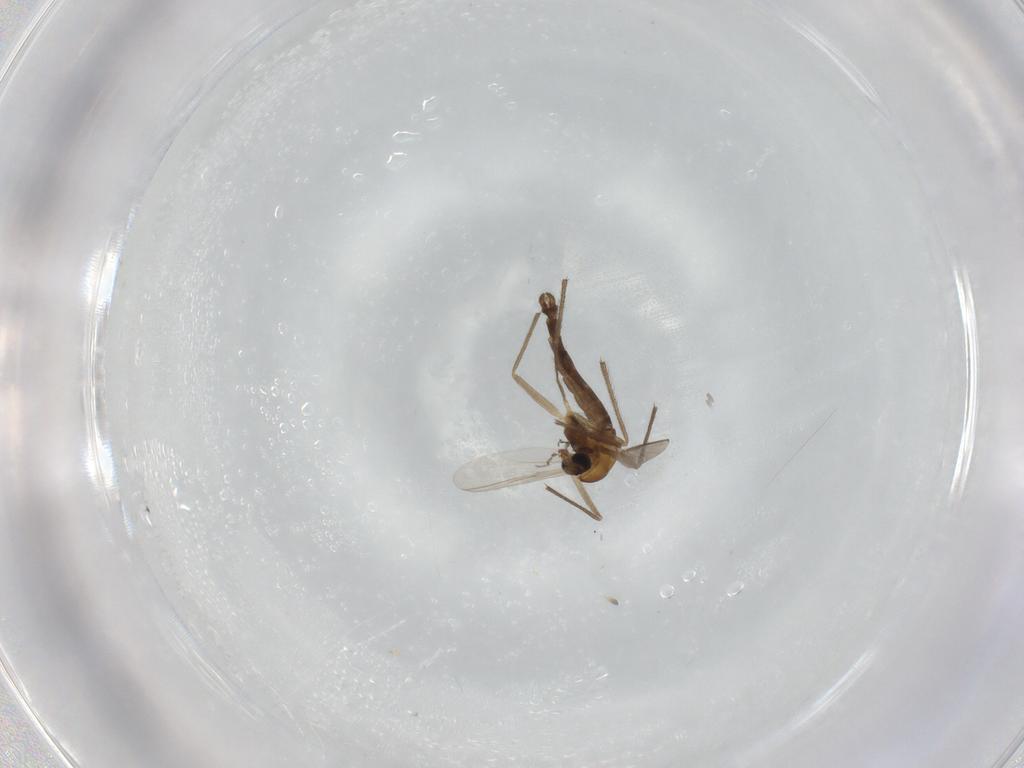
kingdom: Animalia
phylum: Arthropoda
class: Insecta
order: Diptera
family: Chironomidae
